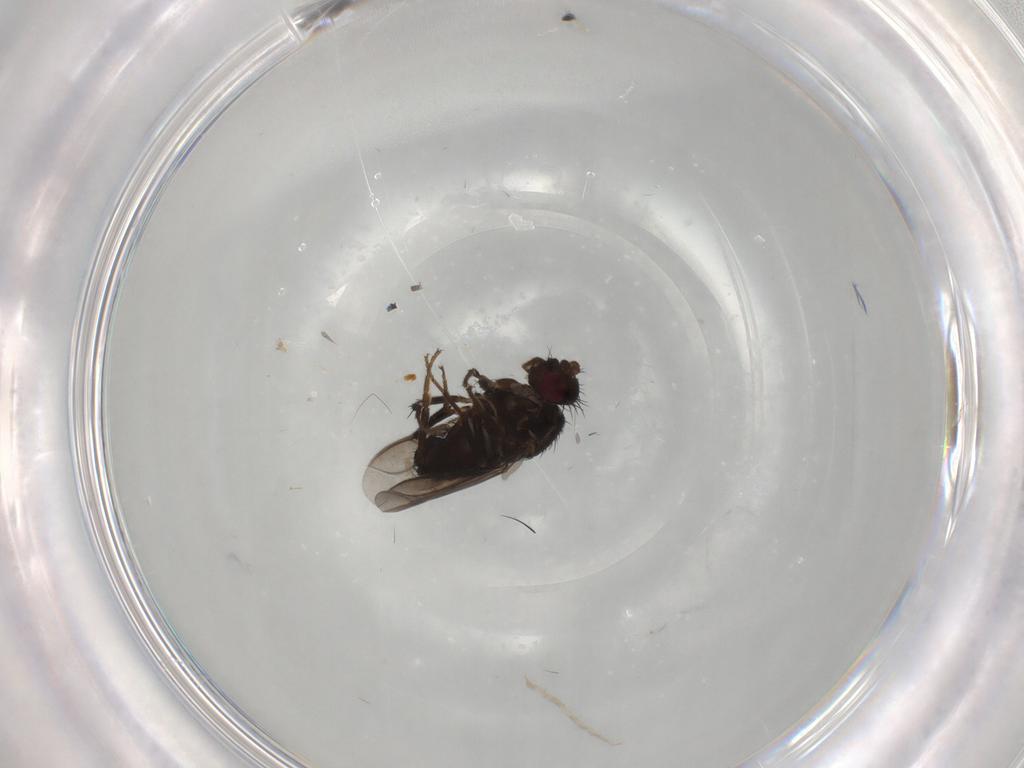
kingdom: Animalia
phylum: Arthropoda
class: Insecta
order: Diptera
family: Sphaeroceridae
